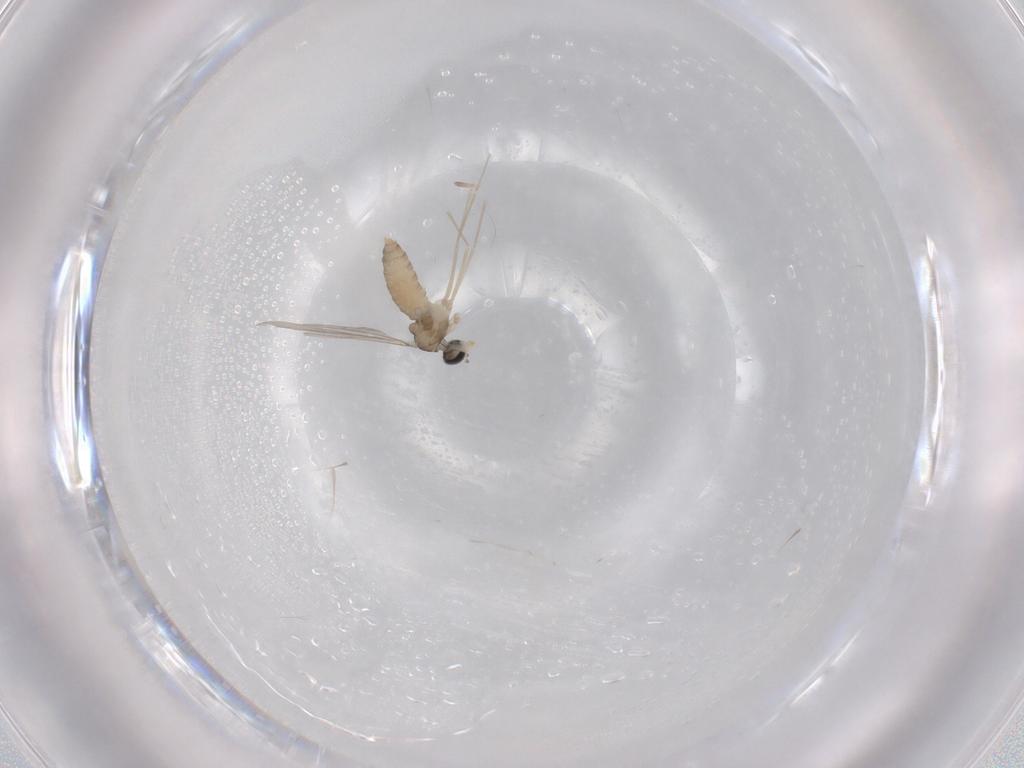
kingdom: Animalia
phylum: Arthropoda
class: Insecta
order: Diptera
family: Cecidomyiidae
